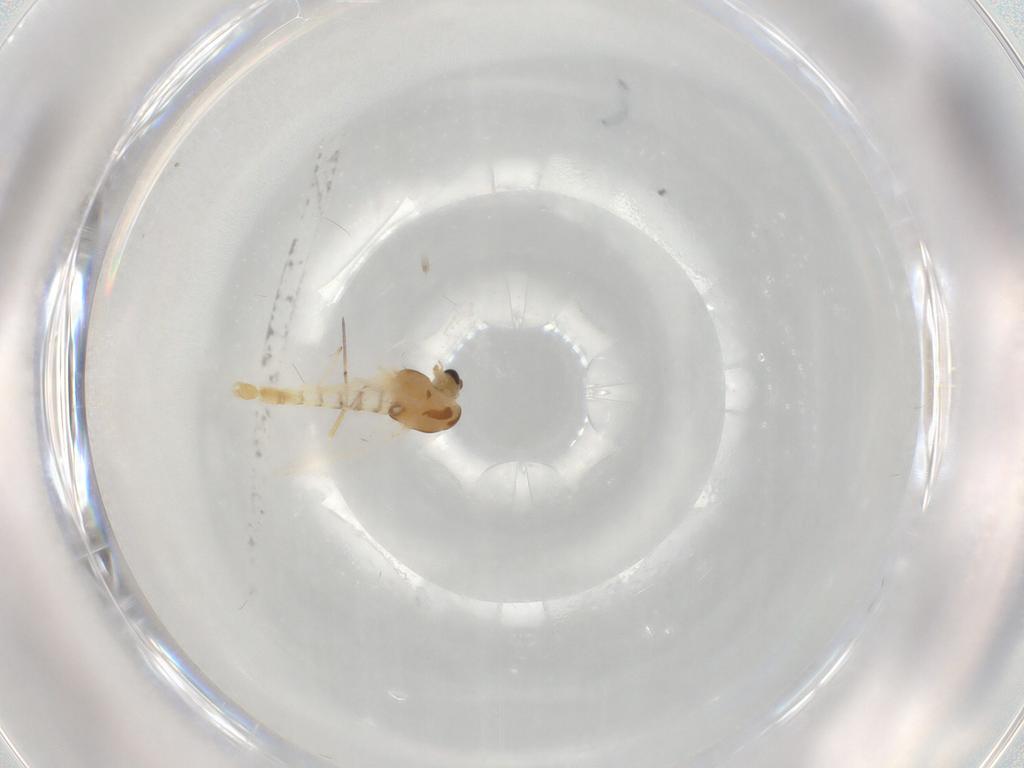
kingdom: Animalia
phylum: Arthropoda
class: Insecta
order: Diptera
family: Chironomidae
